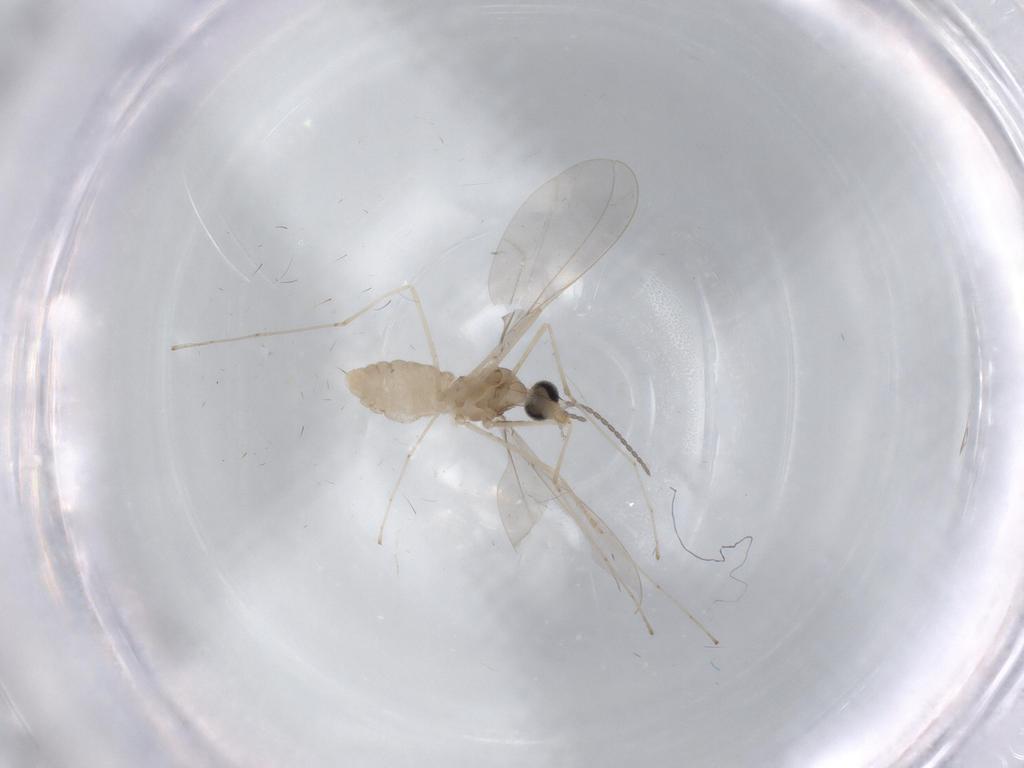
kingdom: Animalia
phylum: Arthropoda
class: Insecta
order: Diptera
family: Cecidomyiidae
